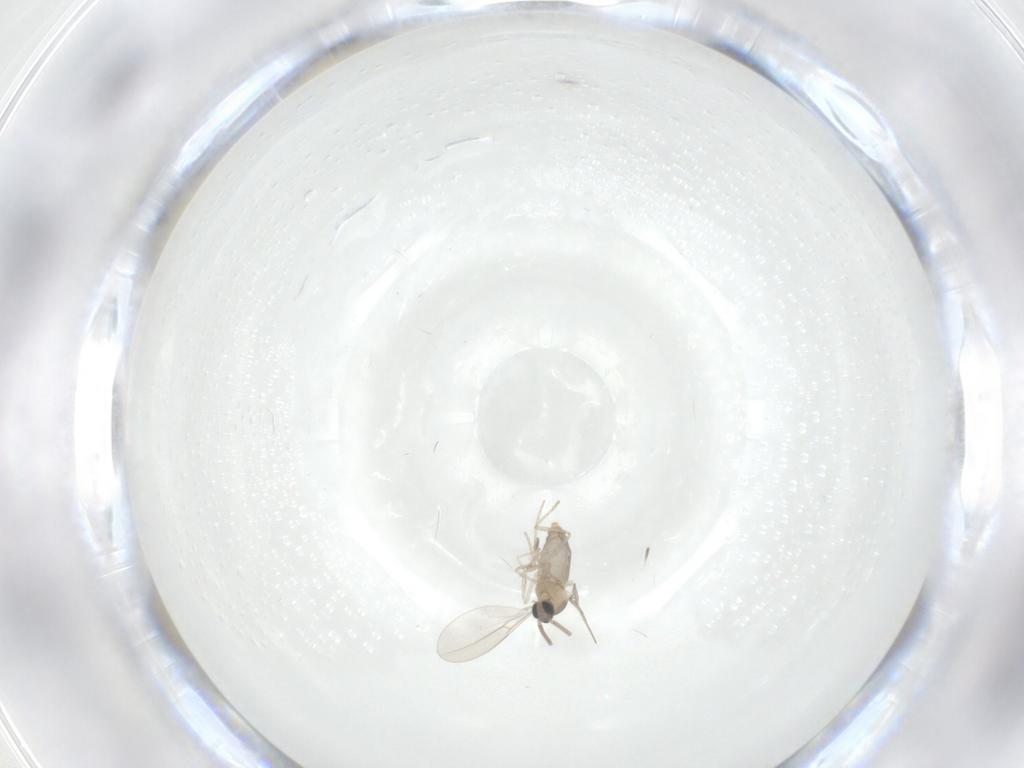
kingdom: Animalia
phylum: Arthropoda
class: Insecta
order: Diptera
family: Cecidomyiidae
